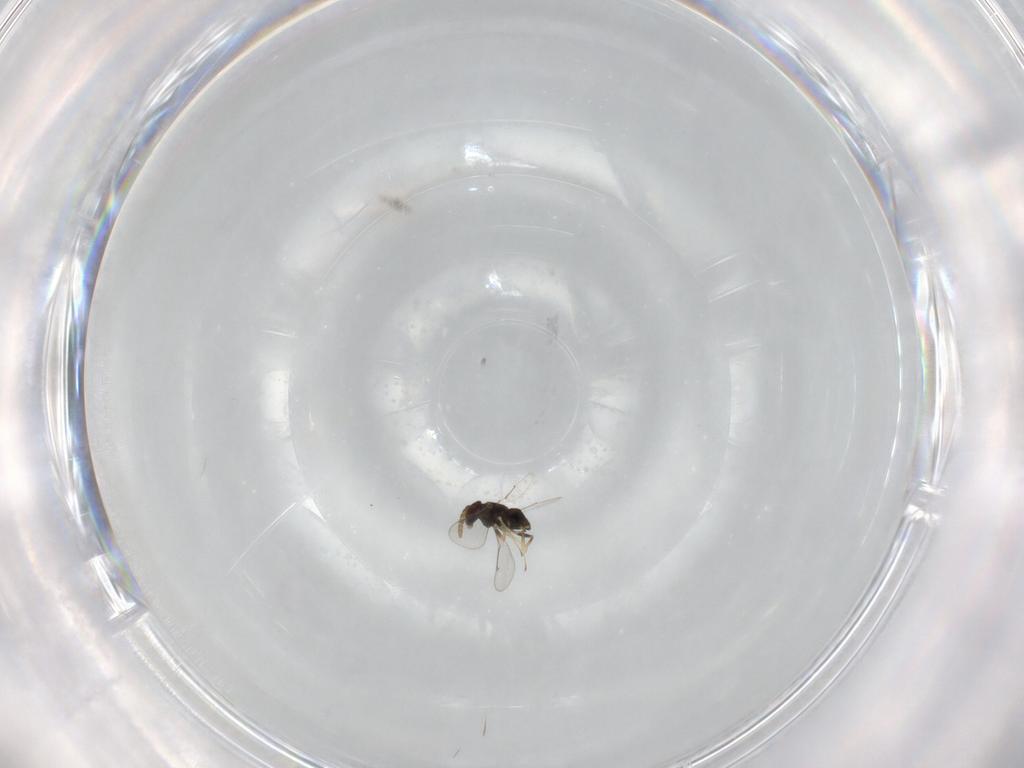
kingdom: Animalia
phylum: Arthropoda
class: Insecta
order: Hymenoptera
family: Aphelinidae
